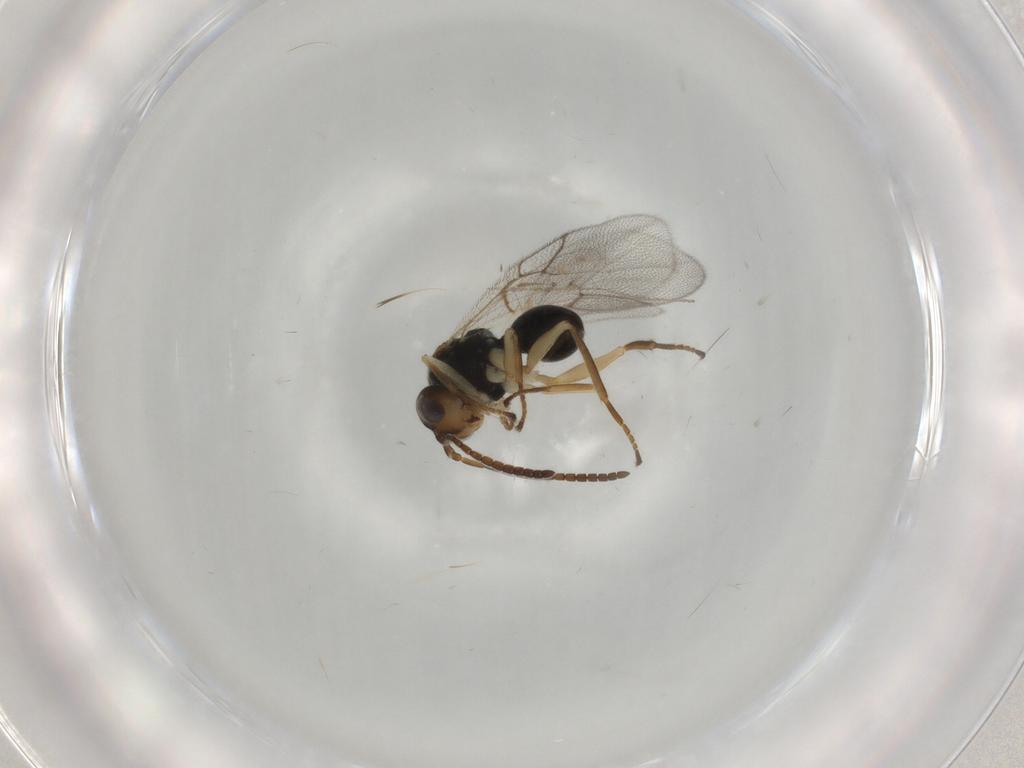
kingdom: Animalia
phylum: Arthropoda
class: Insecta
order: Hymenoptera
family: Cynipidae
